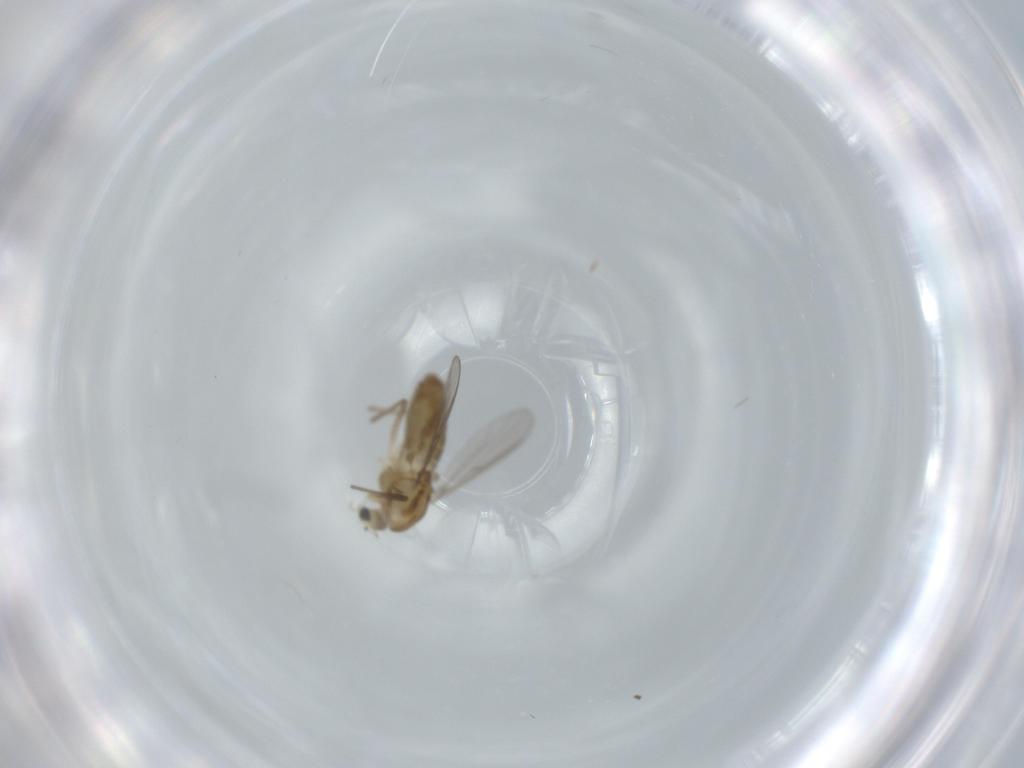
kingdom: Animalia
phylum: Arthropoda
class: Insecta
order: Diptera
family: Chironomidae
